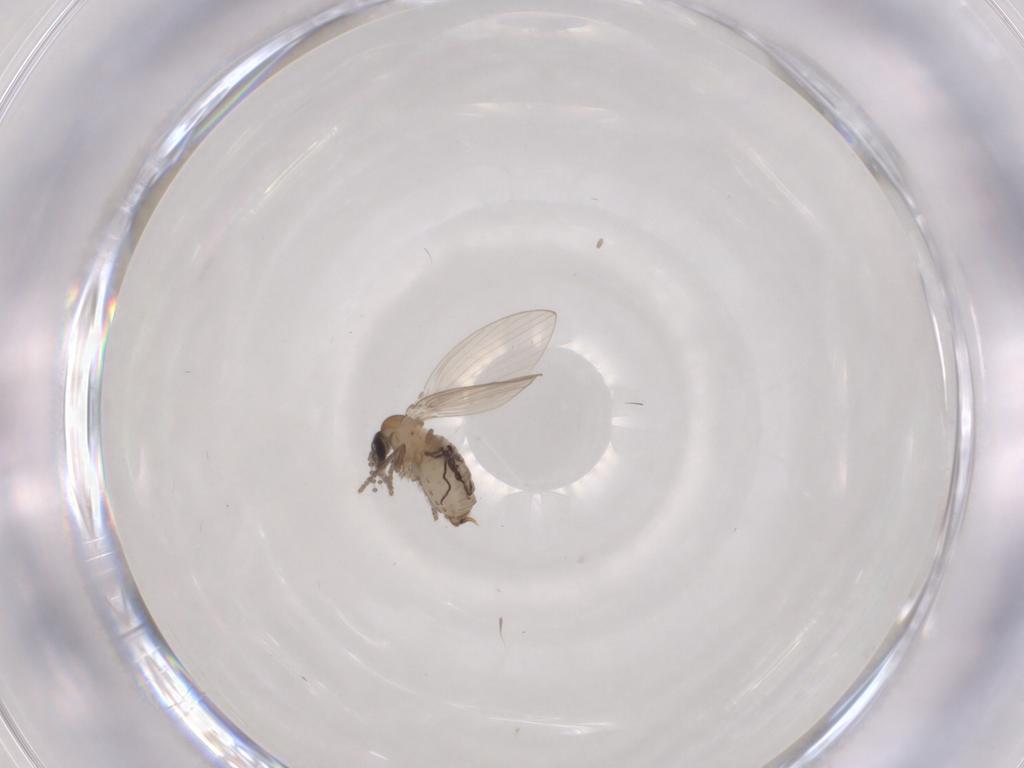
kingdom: Animalia
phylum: Arthropoda
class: Insecta
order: Diptera
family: Psychodidae
